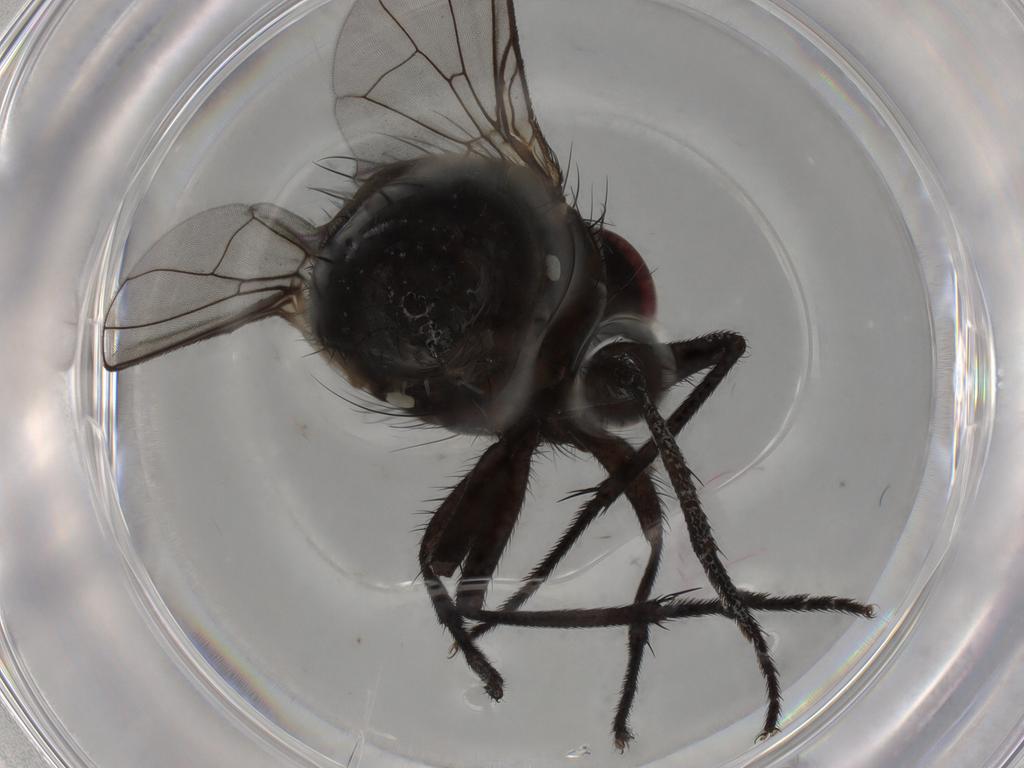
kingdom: Animalia
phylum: Arthropoda
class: Insecta
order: Diptera
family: Muscidae
